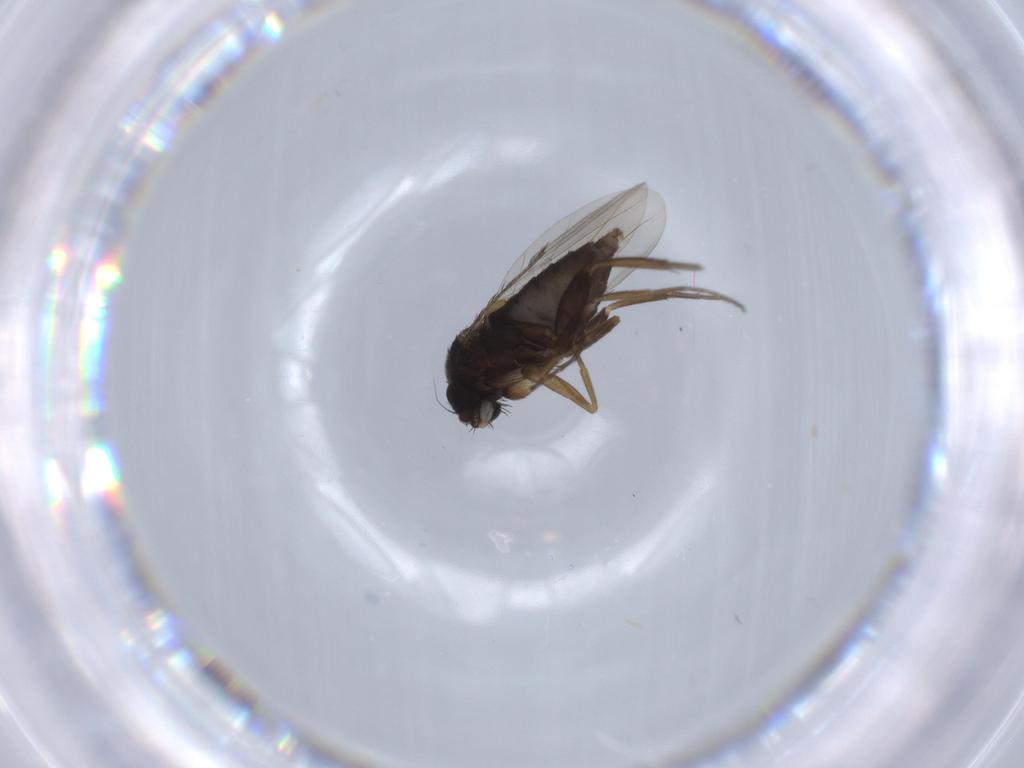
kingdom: Animalia
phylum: Arthropoda
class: Insecta
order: Diptera
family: Phoridae
